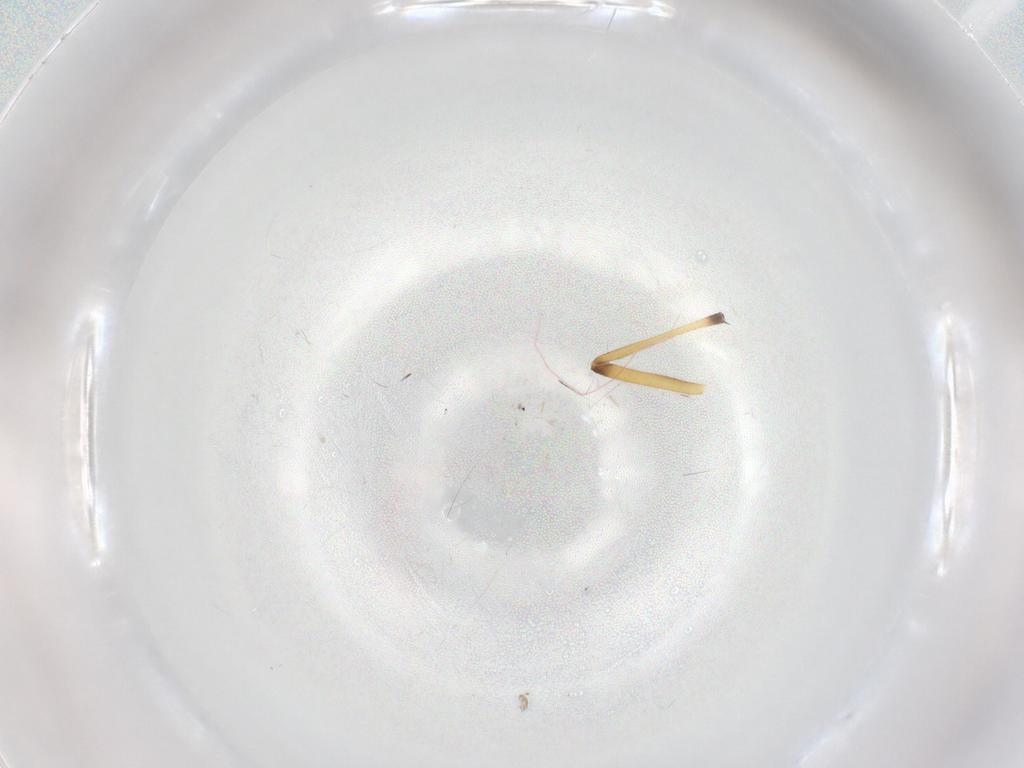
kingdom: Animalia
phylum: Arthropoda
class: Insecta
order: Diptera
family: Chironomidae
